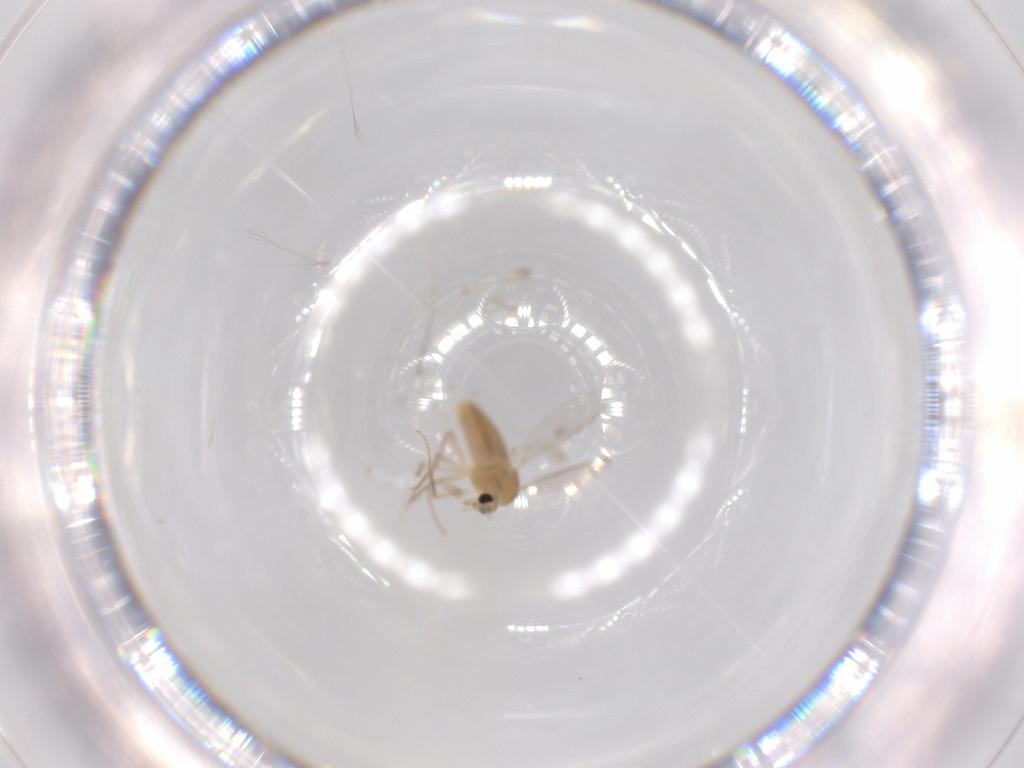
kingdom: Animalia
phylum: Arthropoda
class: Insecta
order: Diptera
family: Chironomidae
